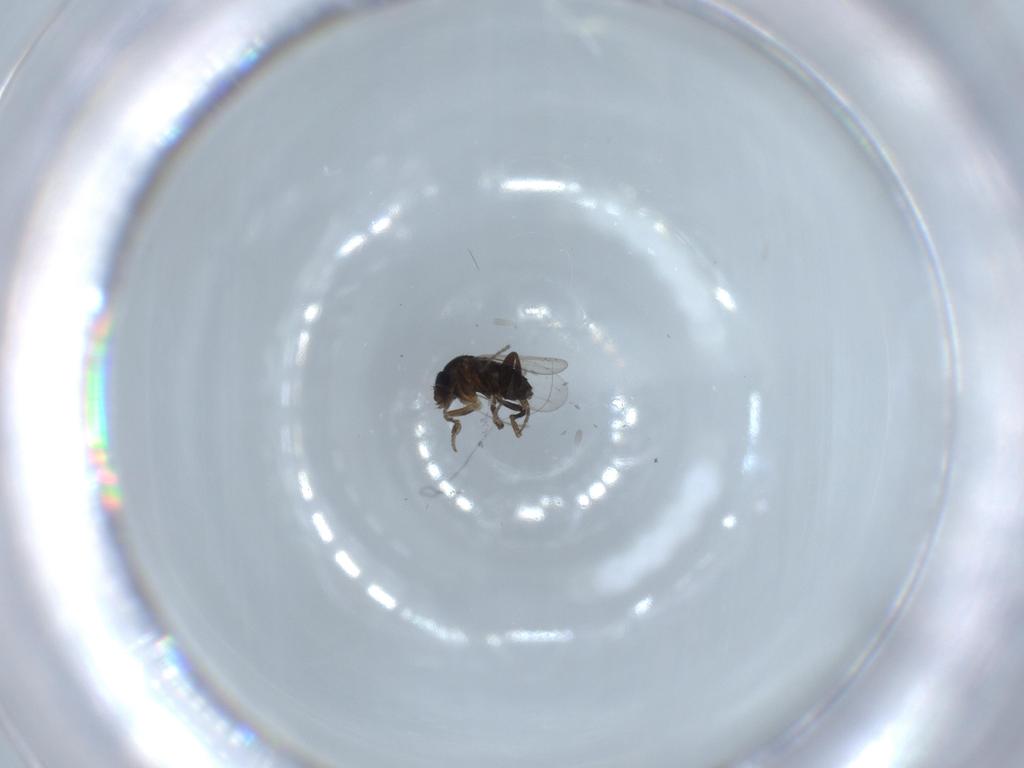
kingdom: Animalia
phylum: Arthropoda
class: Insecta
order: Diptera
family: Phoridae
